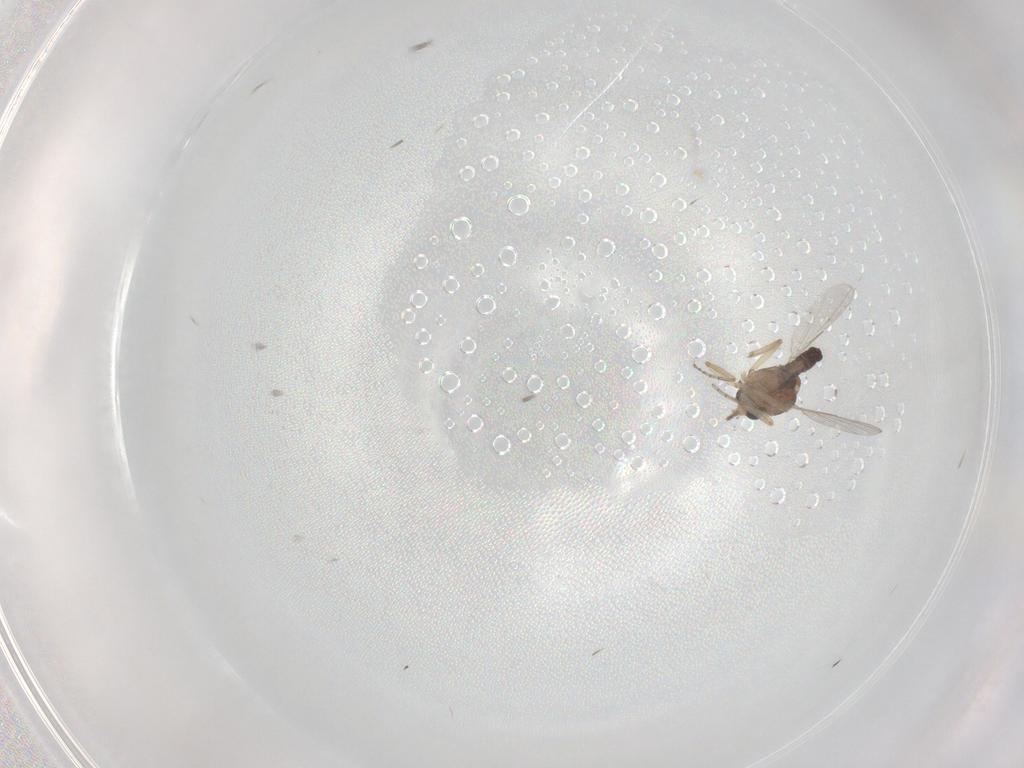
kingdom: Animalia
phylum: Arthropoda
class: Insecta
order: Diptera
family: Ceratopogonidae
